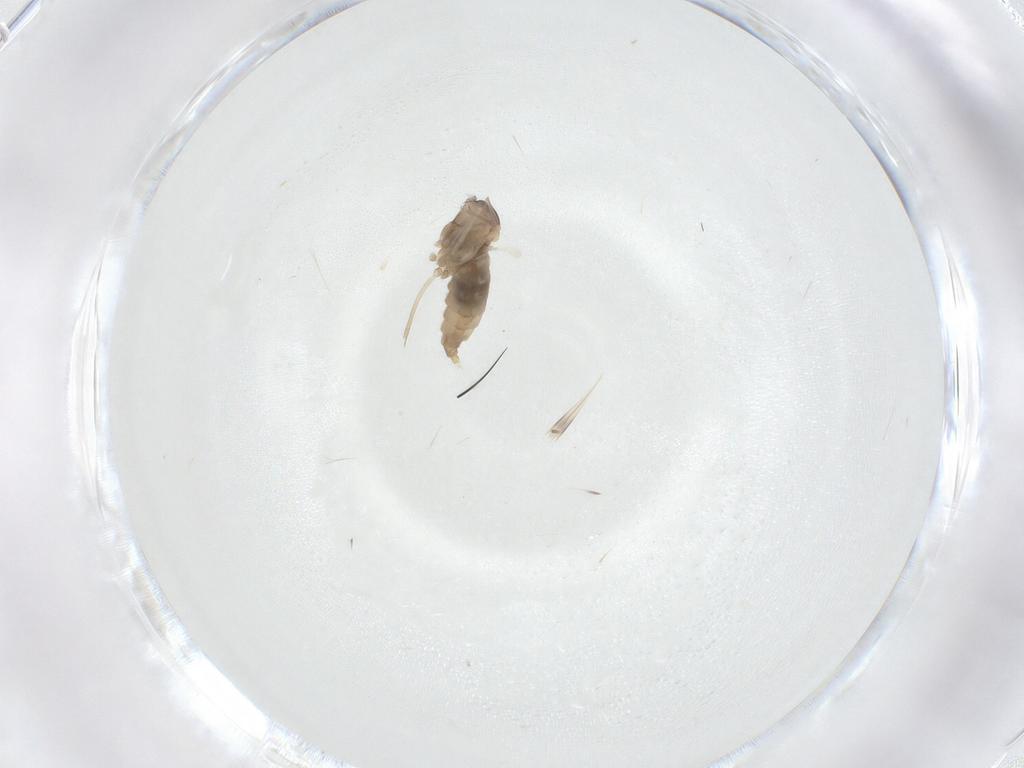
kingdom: Animalia
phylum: Arthropoda
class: Insecta
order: Diptera
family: Cecidomyiidae
